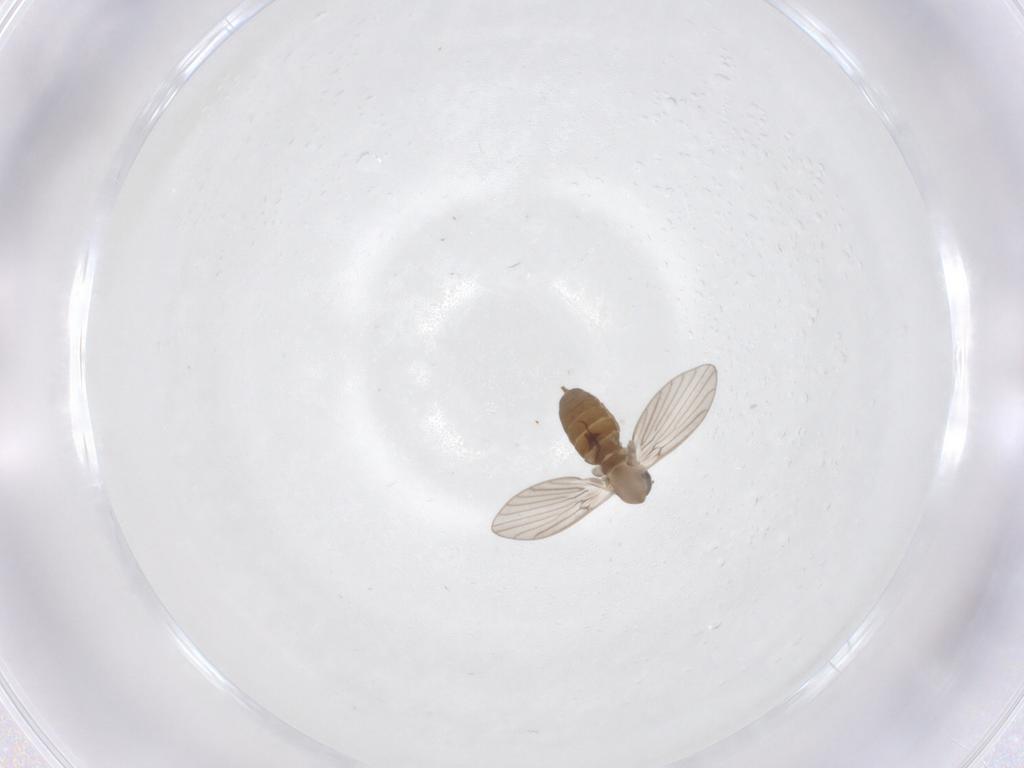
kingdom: Animalia
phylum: Arthropoda
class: Insecta
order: Diptera
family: Psychodidae
